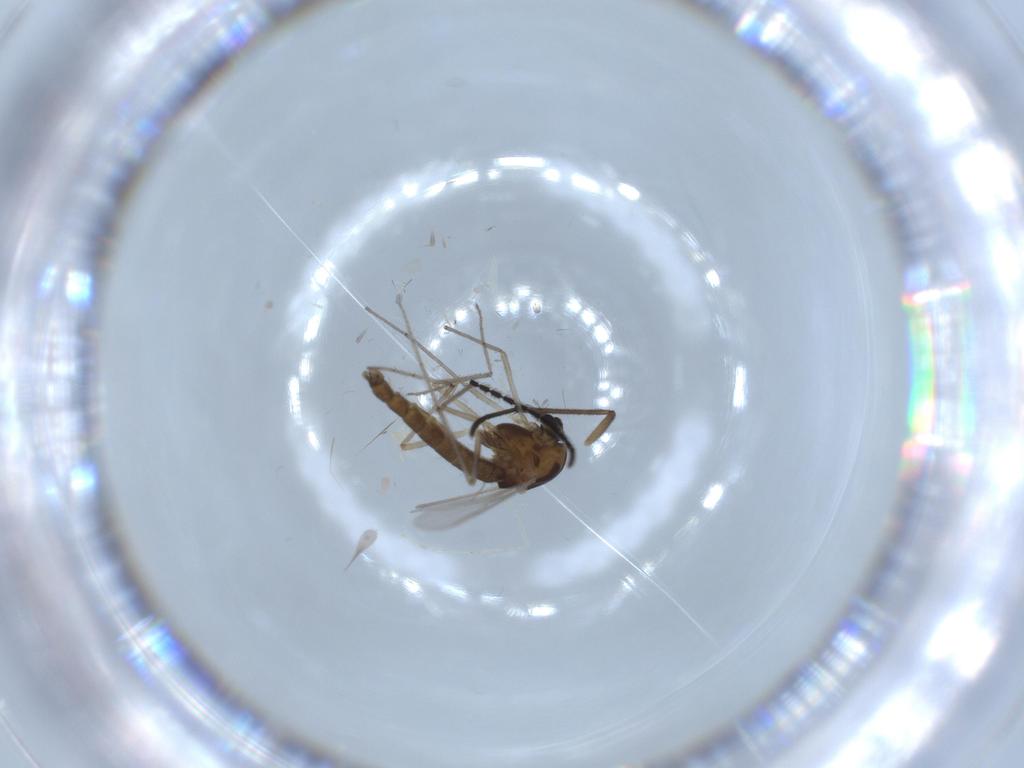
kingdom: Animalia
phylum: Arthropoda
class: Insecta
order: Diptera
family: Chironomidae
